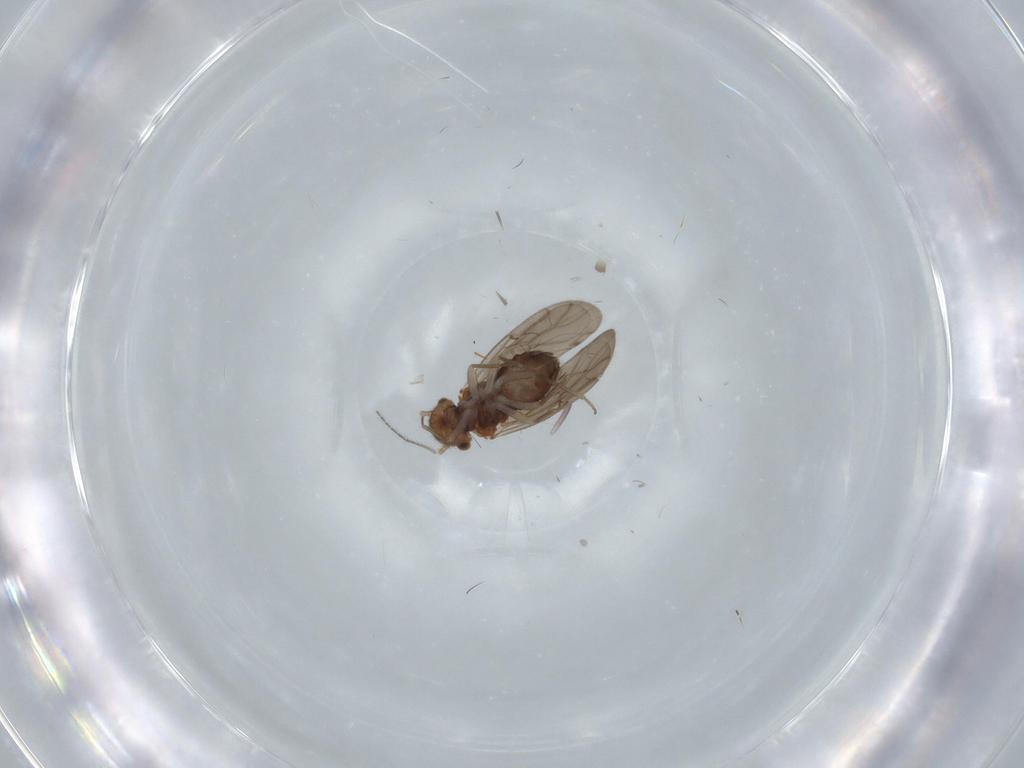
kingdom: Animalia
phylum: Arthropoda
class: Insecta
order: Psocodea
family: Ectopsocidae
